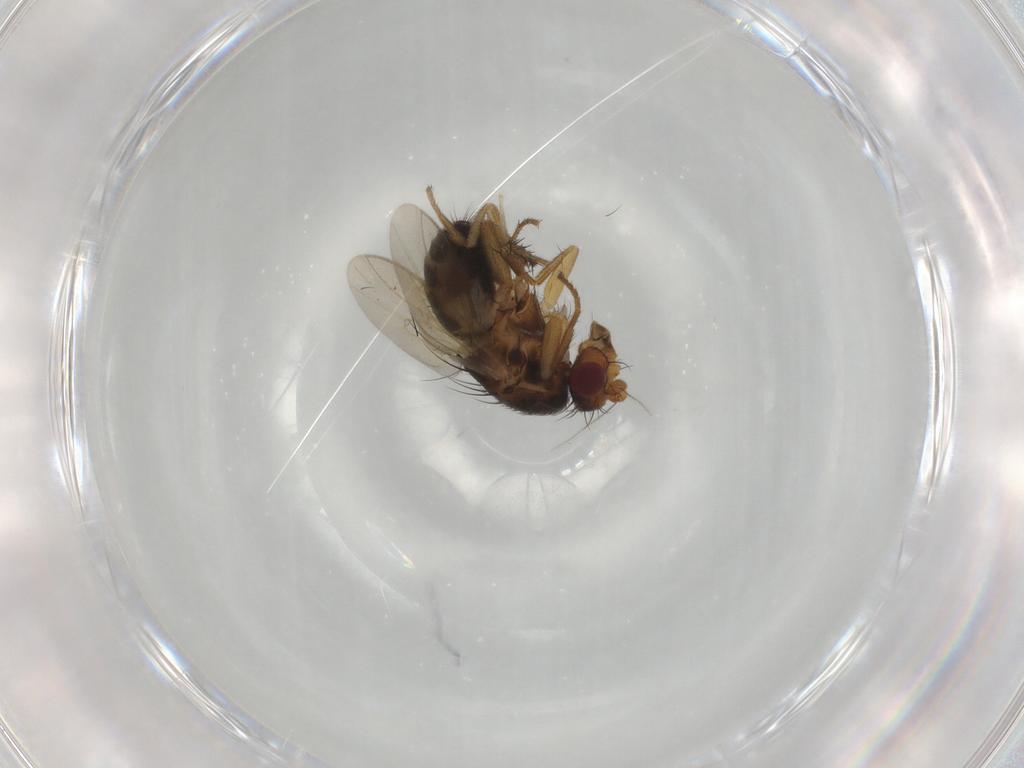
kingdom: Animalia
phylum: Arthropoda
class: Insecta
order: Diptera
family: Sphaeroceridae
